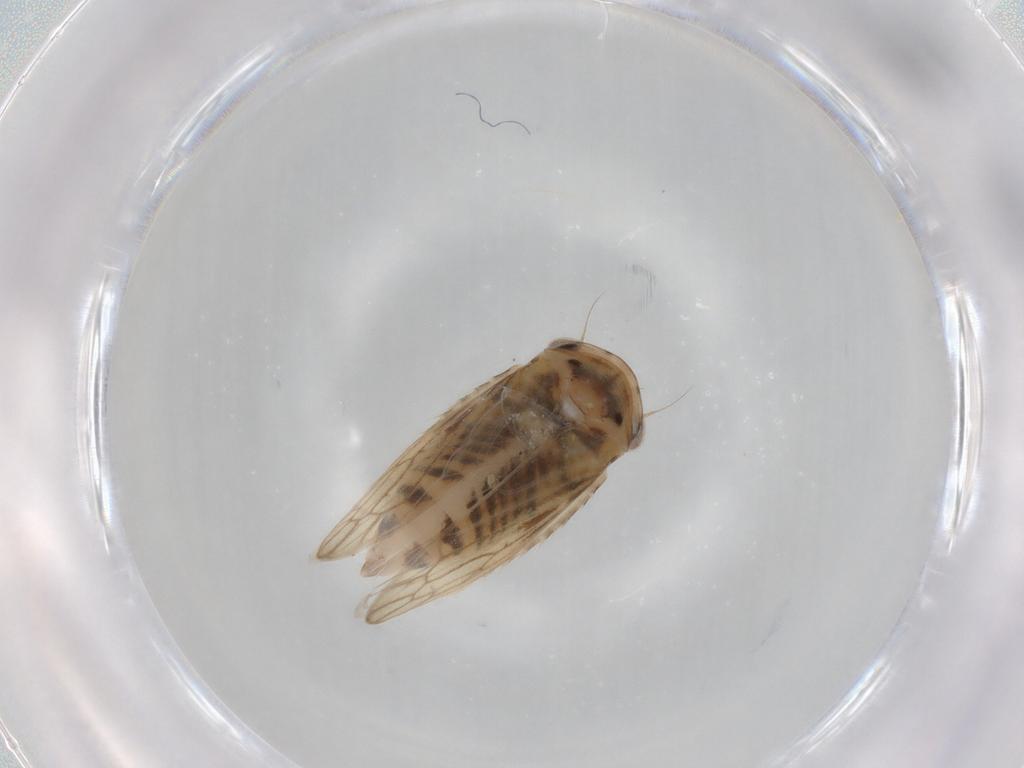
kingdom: Animalia
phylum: Arthropoda
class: Insecta
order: Hemiptera
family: Cicadellidae
